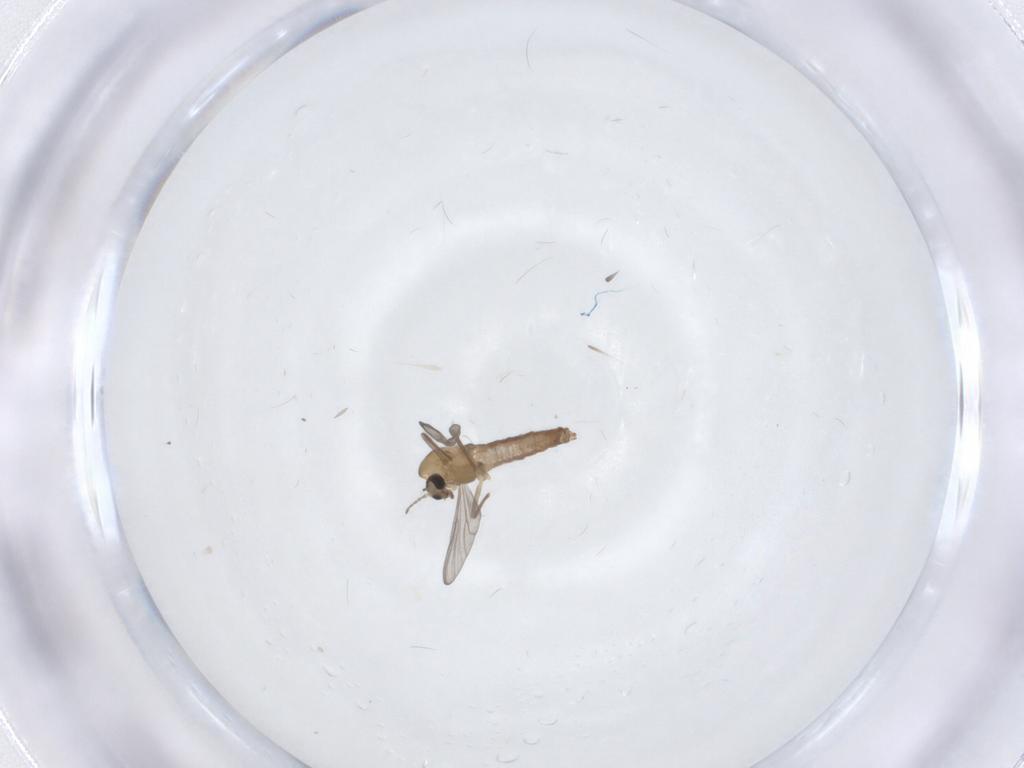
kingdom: Animalia
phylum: Arthropoda
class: Insecta
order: Diptera
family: Chironomidae
